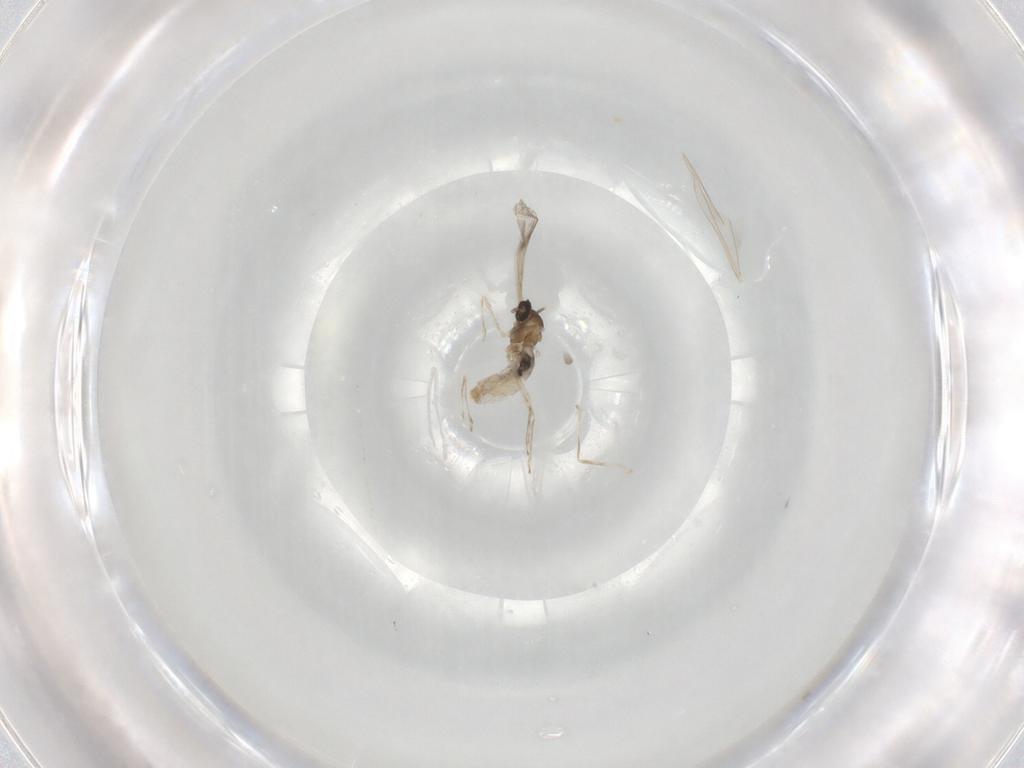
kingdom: Animalia
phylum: Arthropoda
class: Insecta
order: Diptera
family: Cecidomyiidae
